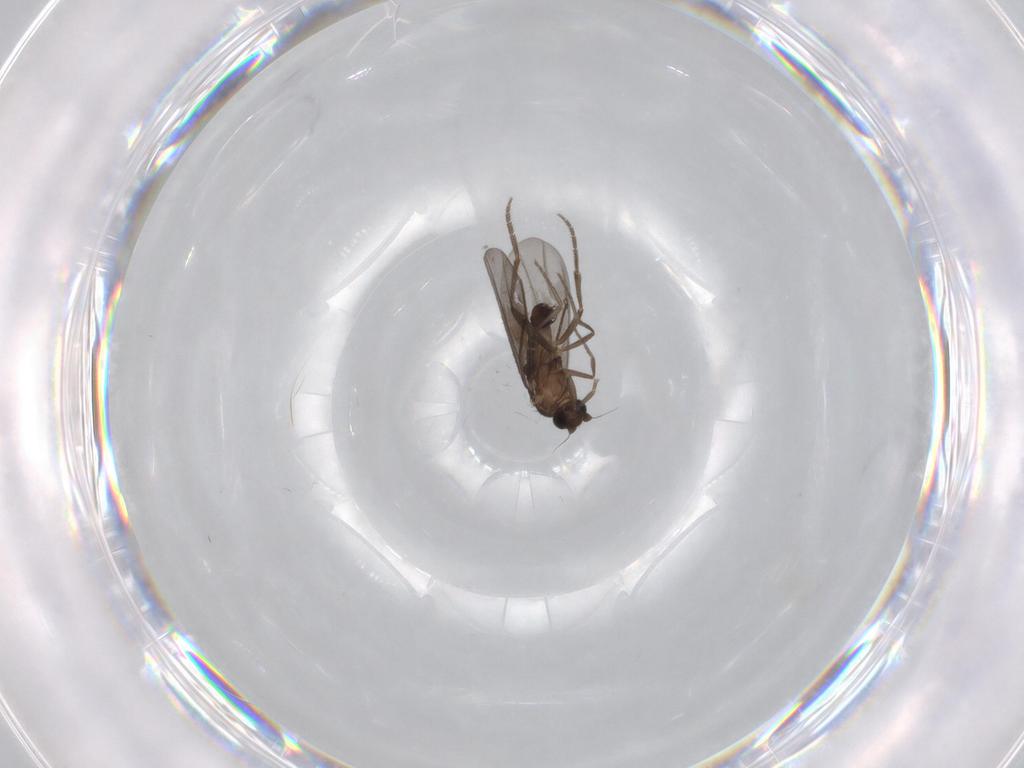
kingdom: Animalia
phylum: Arthropoda
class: Insecta
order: Diptera
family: Phoridae
